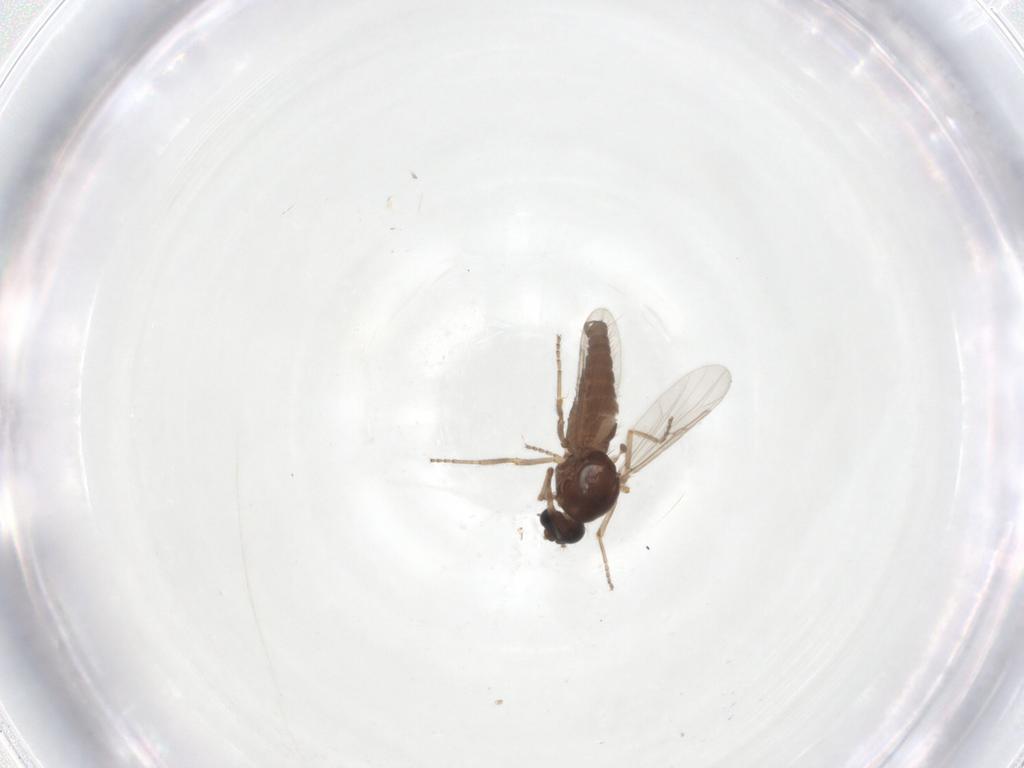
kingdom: Animalia
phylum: Arthropoda
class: Insecta
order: Diptera
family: Ceratopogonidae
